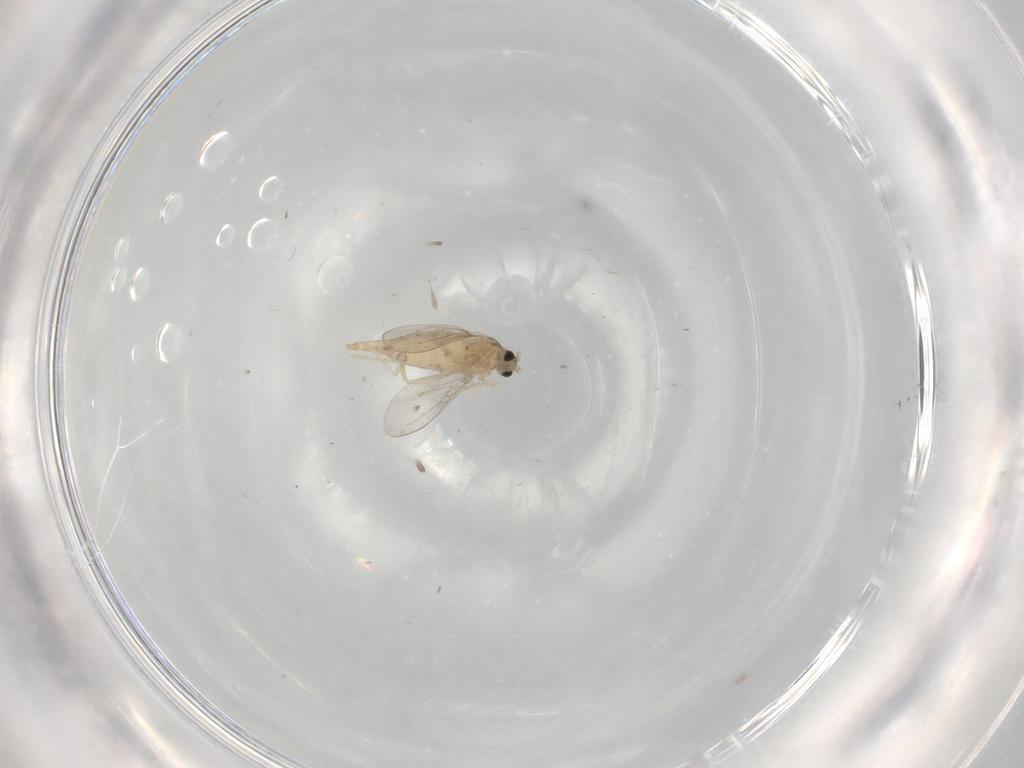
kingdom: Animalia
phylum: Arthropoda
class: Insecta
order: Diptera
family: Cecidomyiidae
